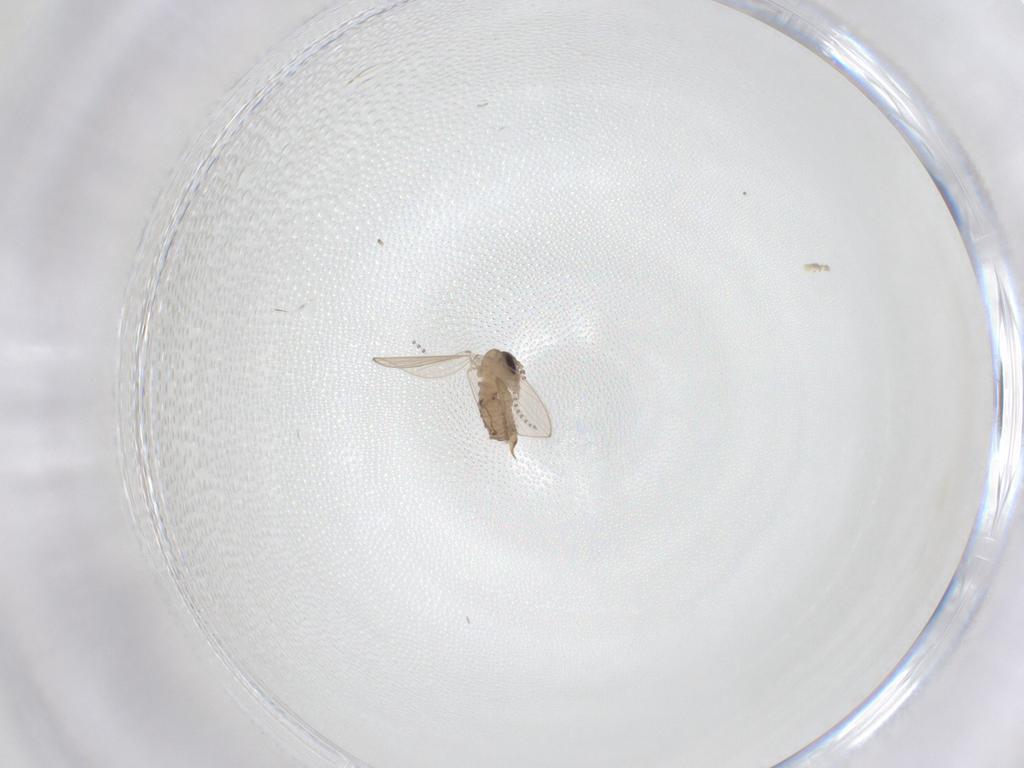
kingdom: Animalia
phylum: Arthropoda
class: Insecta
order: Diptera
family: Psychodidae
